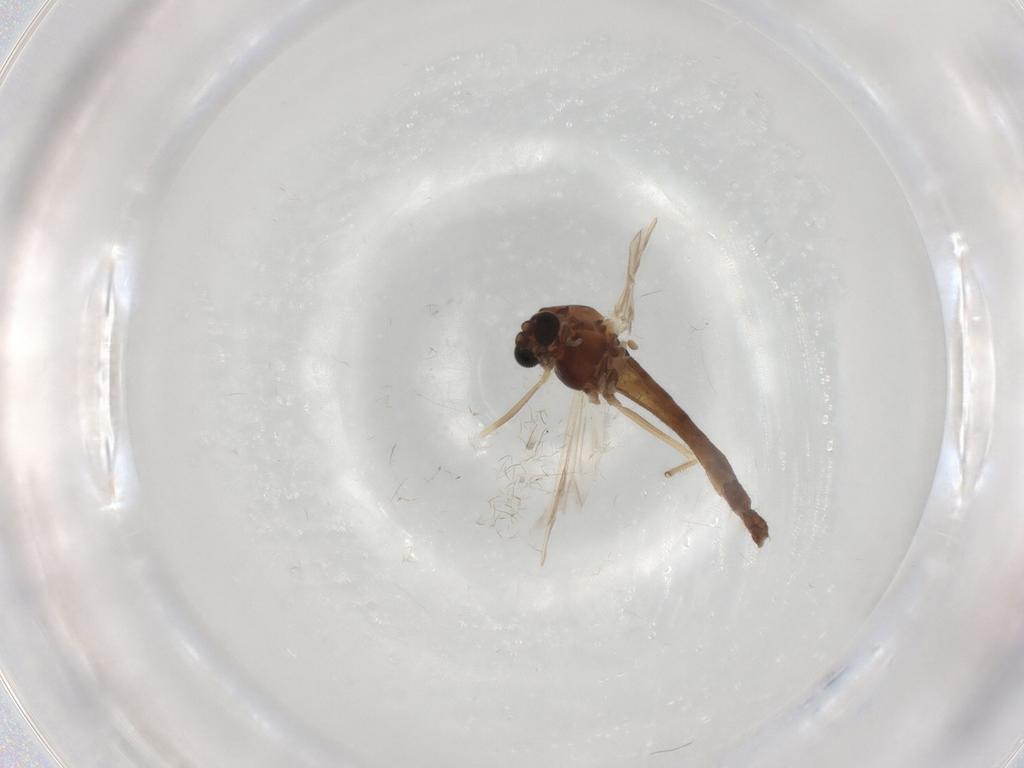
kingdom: Animalia
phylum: Arthropoda
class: Insecta
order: Diptera
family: Chironomidae
